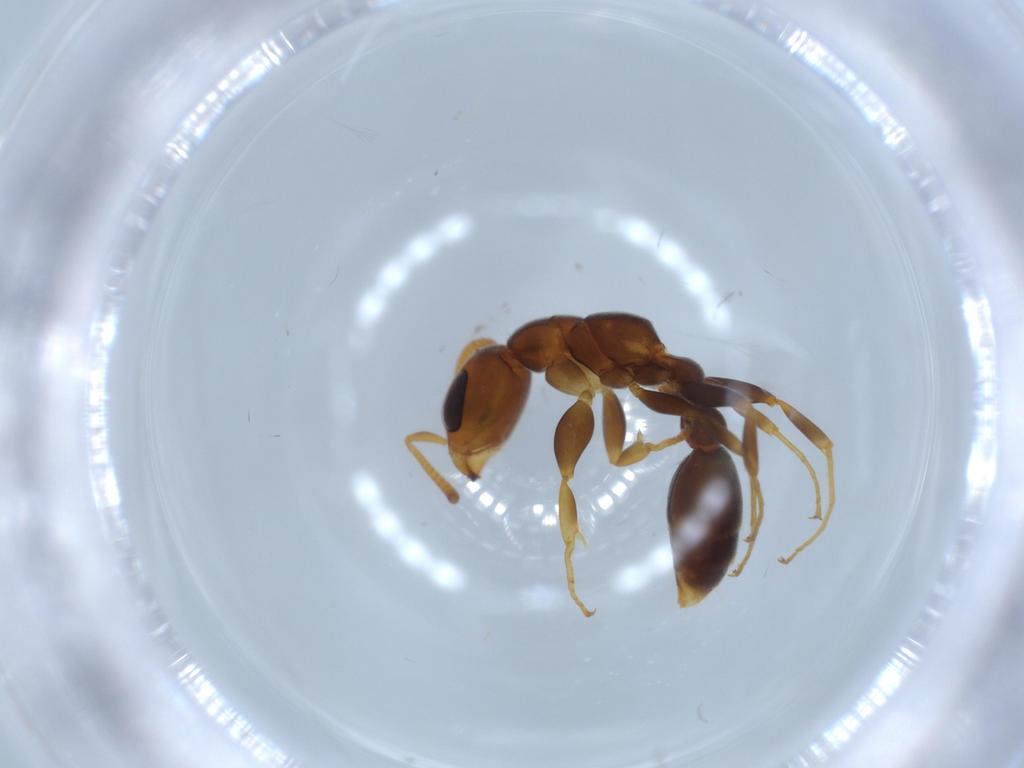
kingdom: Animalia
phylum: Arthropoda
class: Insecta
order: Hymenoptera
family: Formicidae
